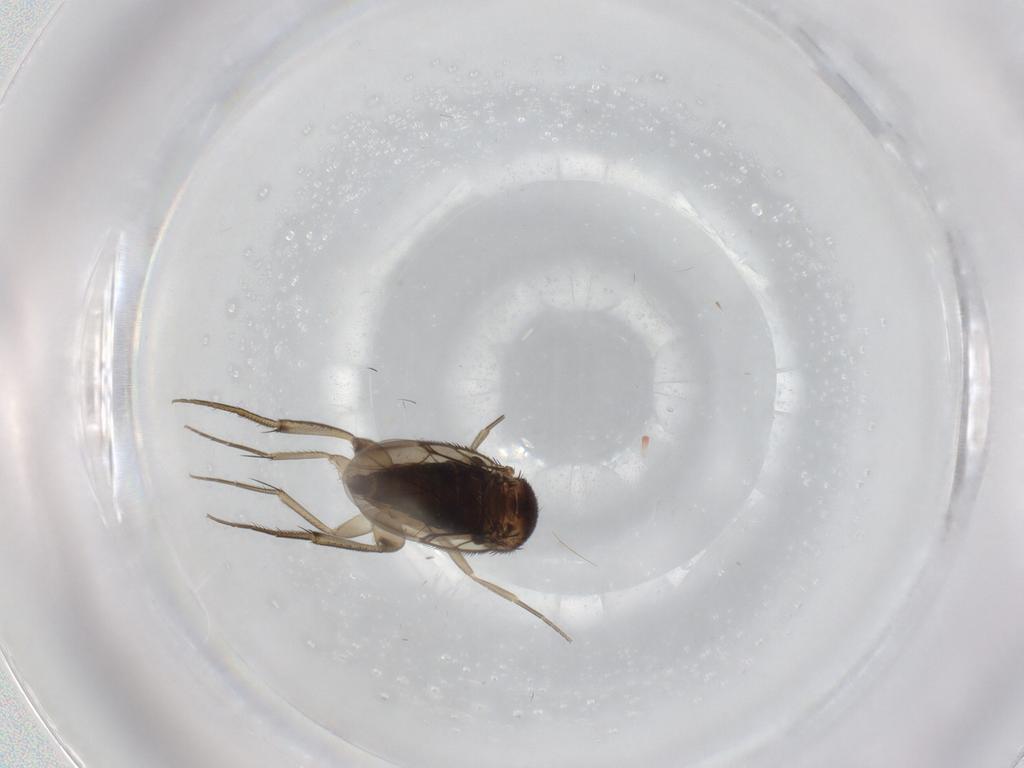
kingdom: Animalia
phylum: Arthropoda
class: Insecta
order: Diptera
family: Phoridae
